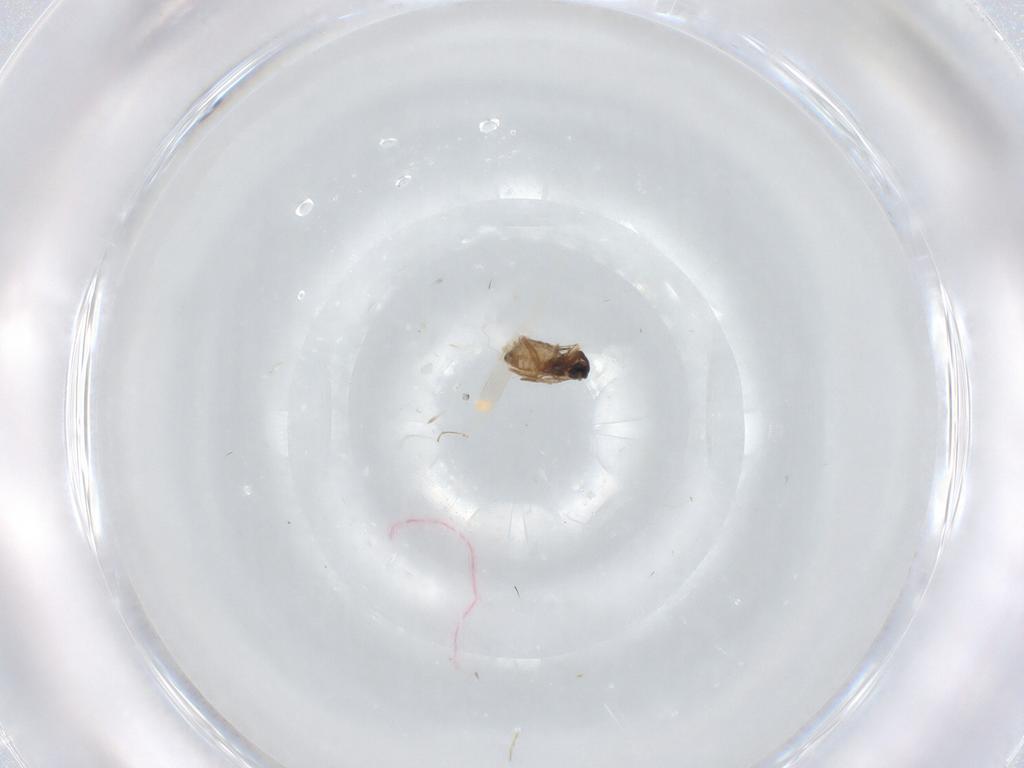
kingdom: Animalia
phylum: Arthropoda
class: Insecta
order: Diptera
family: Cecidomyiidae
